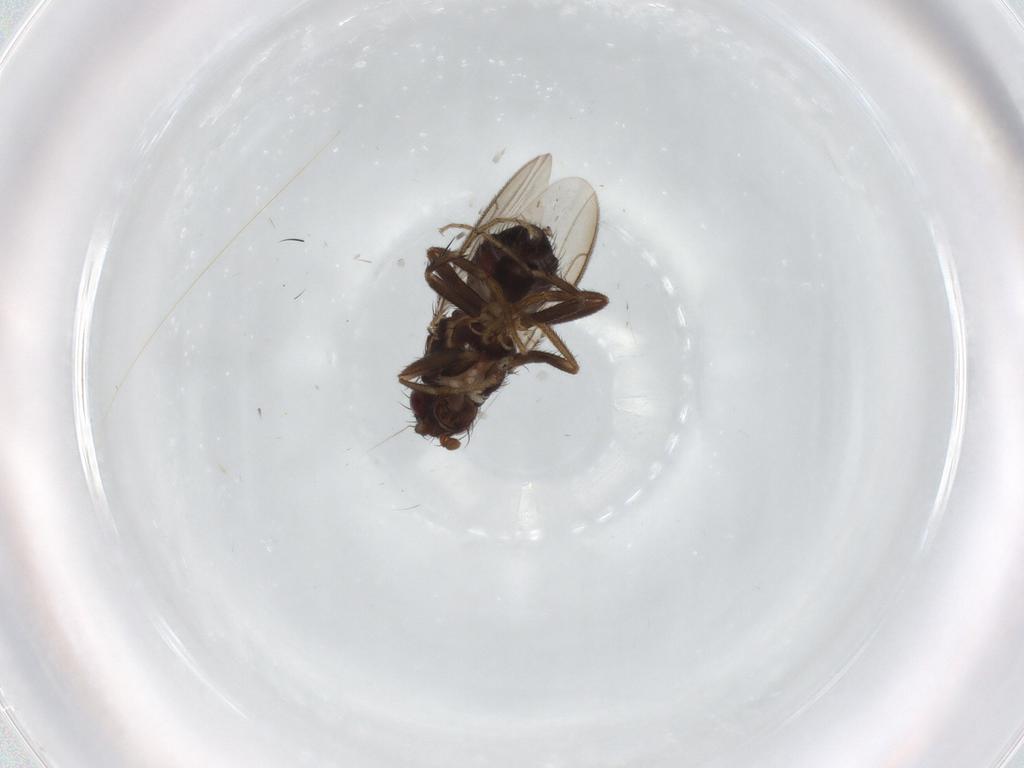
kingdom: Animalia
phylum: Arthropoda
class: Insecta
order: Diptera
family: Sphaeroceridae
